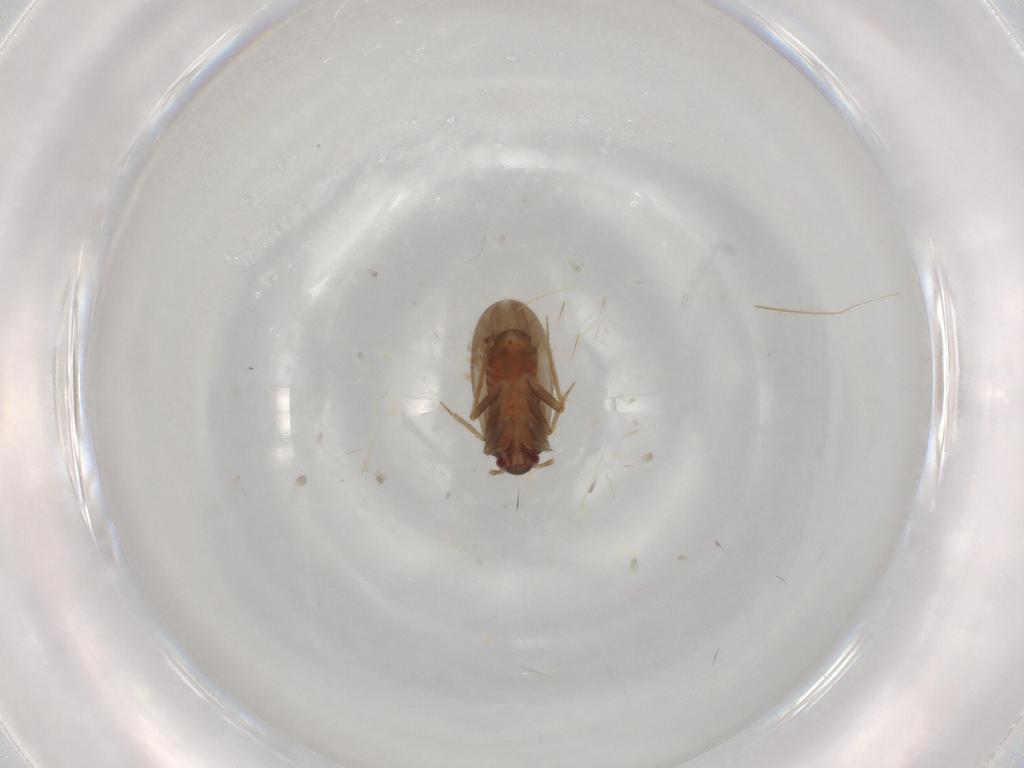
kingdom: Animalia
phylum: Arthropoda
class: Insecta
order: Hemiptera
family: Ceratocombidae
